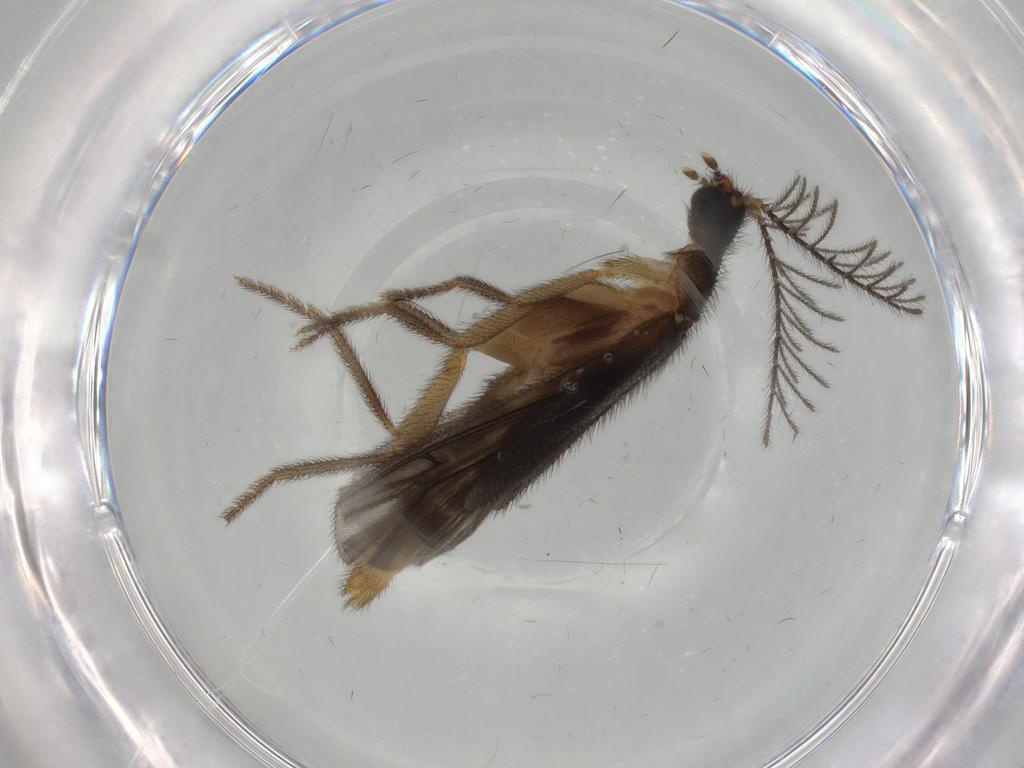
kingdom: Animalia
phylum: Arthropoda
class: Insecta
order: Coleoptera
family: Phengodidae
